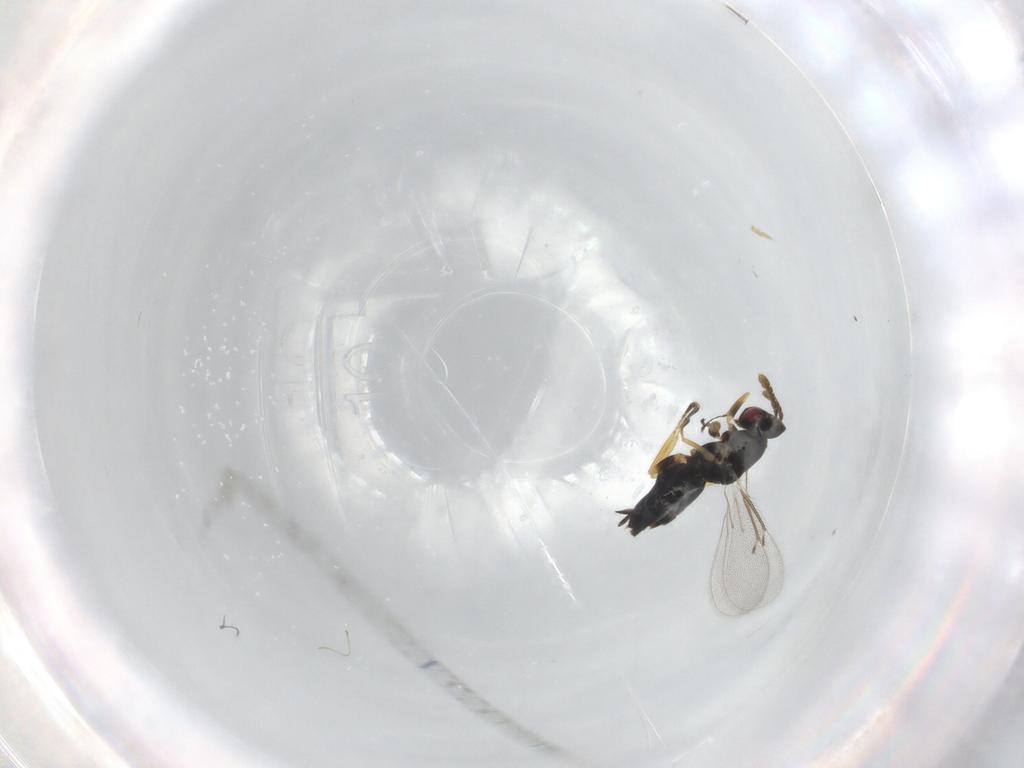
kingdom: Animalia
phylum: Arthropoda
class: Insecta
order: Hymenoptera
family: Eulophidae
